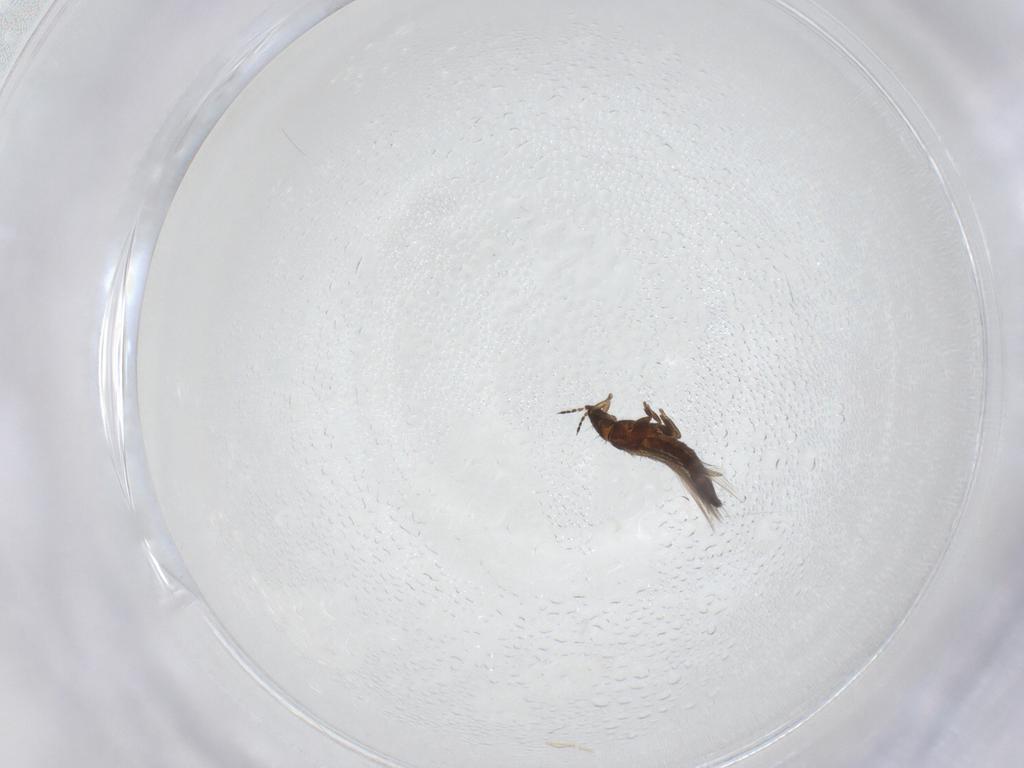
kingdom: Animalia
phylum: Arthropoda
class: Insecta
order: Thysanoptera
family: Thripidae
